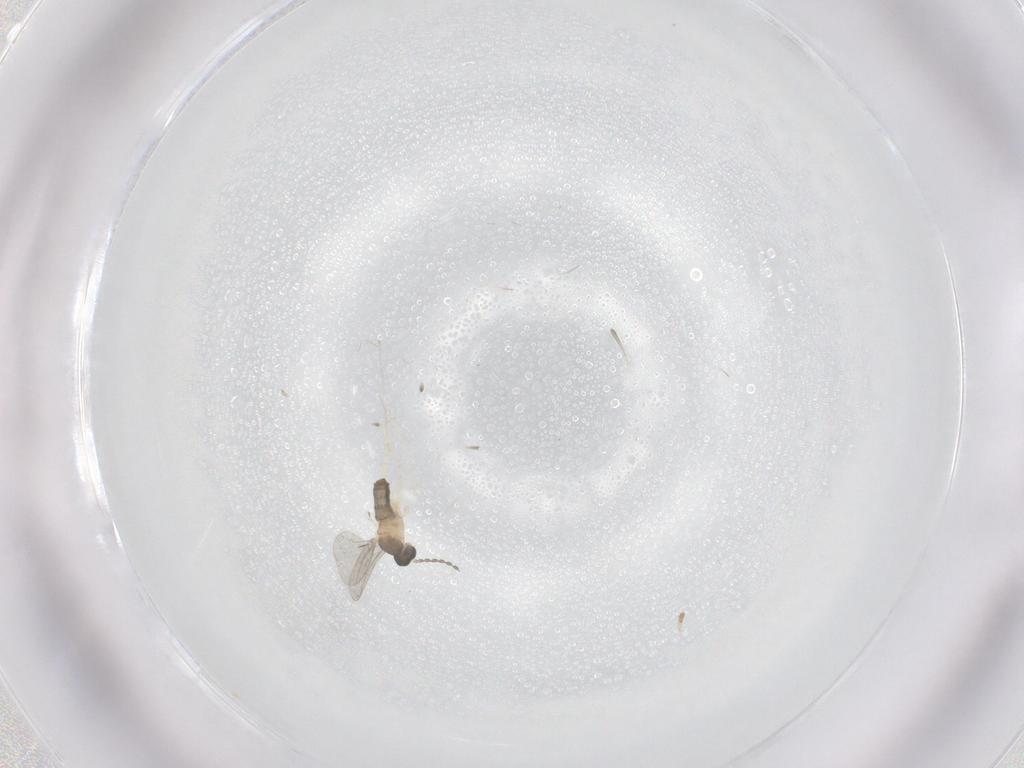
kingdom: Animalia
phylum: Arthropoda
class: Insecta
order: Diptera
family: Cecidomyiidae
